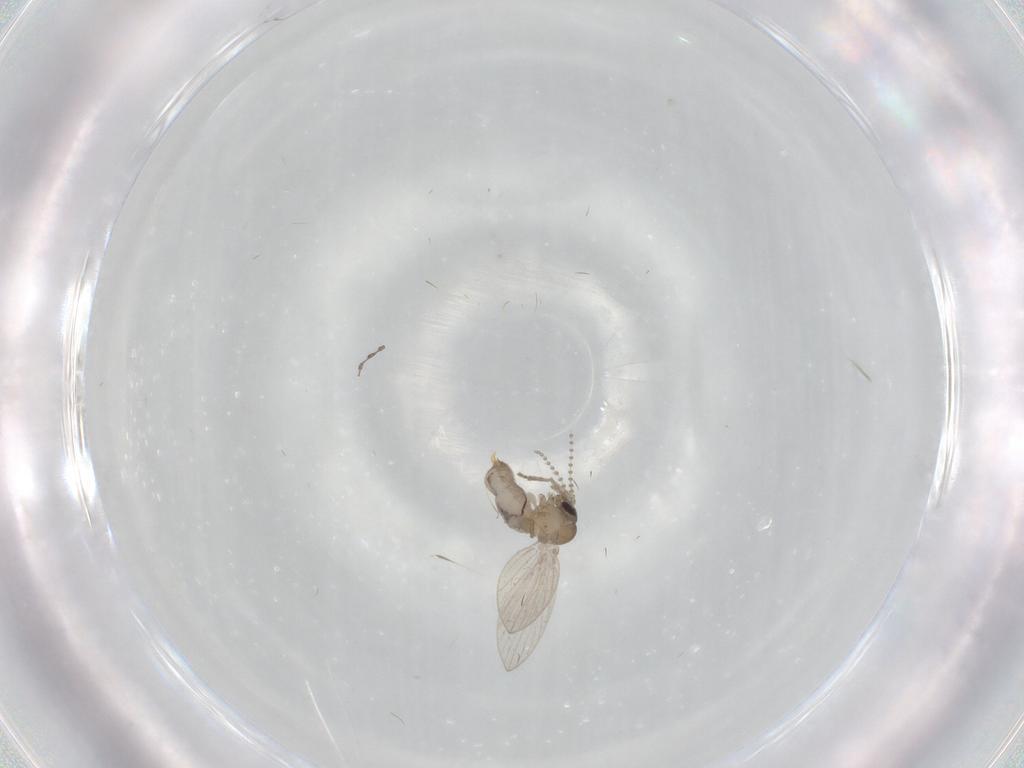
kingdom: Animalia
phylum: Arthropoda
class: Insecta
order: Diptera
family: Psychodidae
